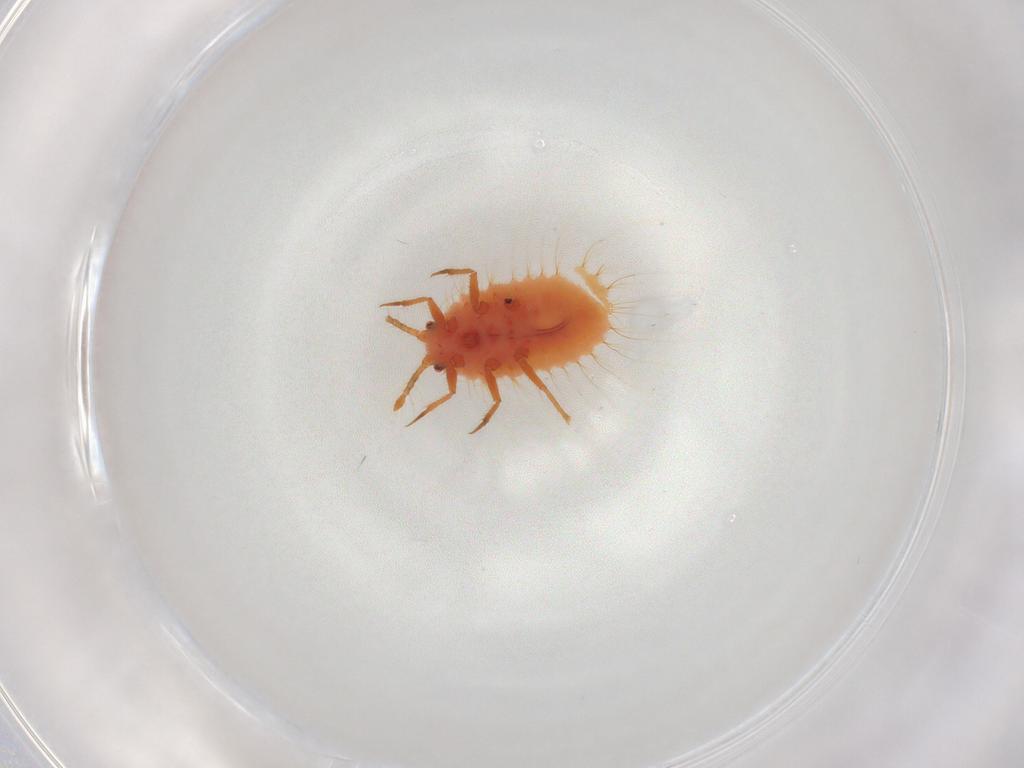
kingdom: Animalia
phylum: Arthropoda
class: Insecta
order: Hemiptera
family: Coccoidea_incertae_sedis
